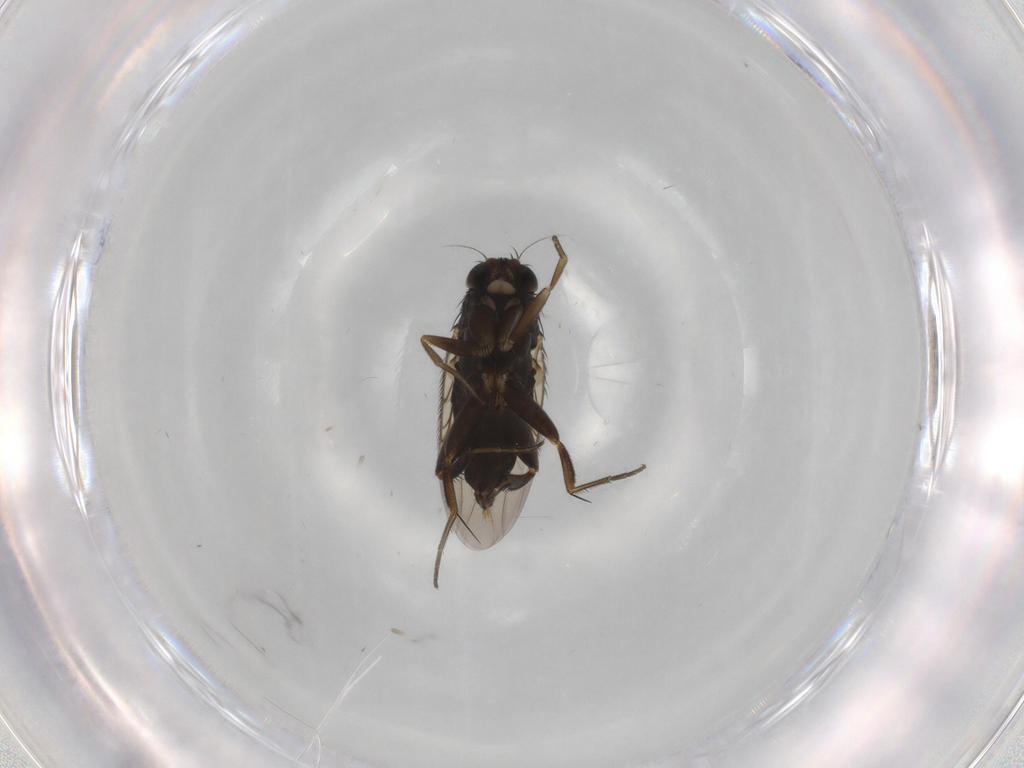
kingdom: Animalia
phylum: Arthropoda
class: Insecta
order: Diptera
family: Phoridae
